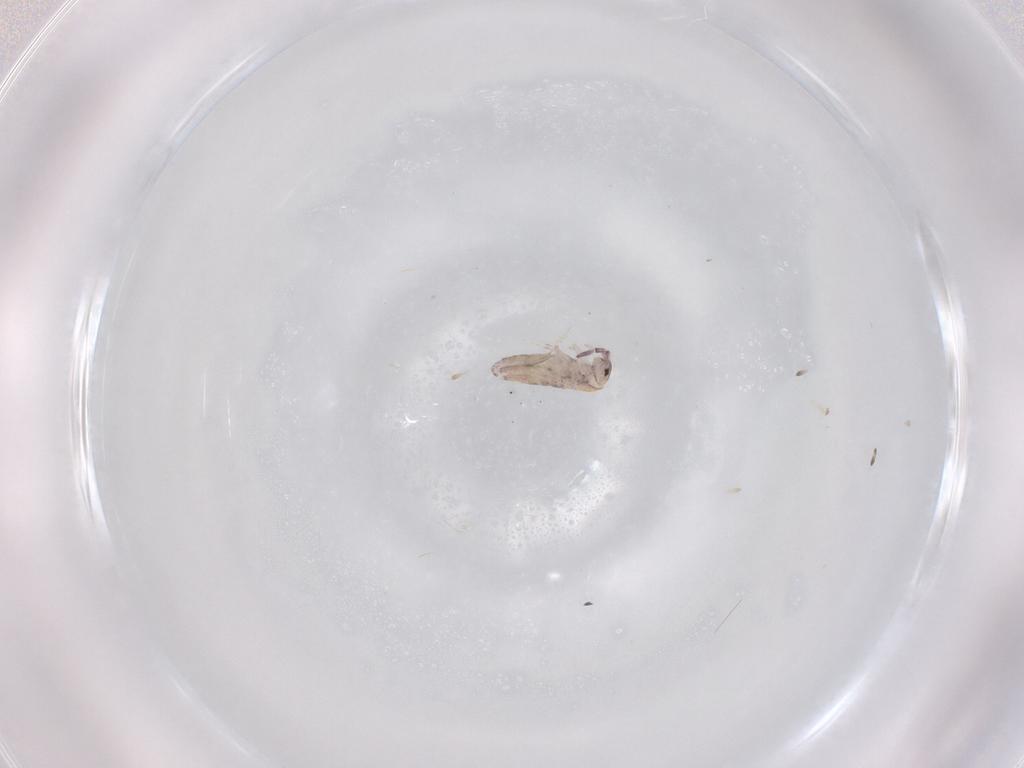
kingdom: Animalia
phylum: Arthropoda
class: Collembola
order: Entomobryomorpha
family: Entomobryidae
